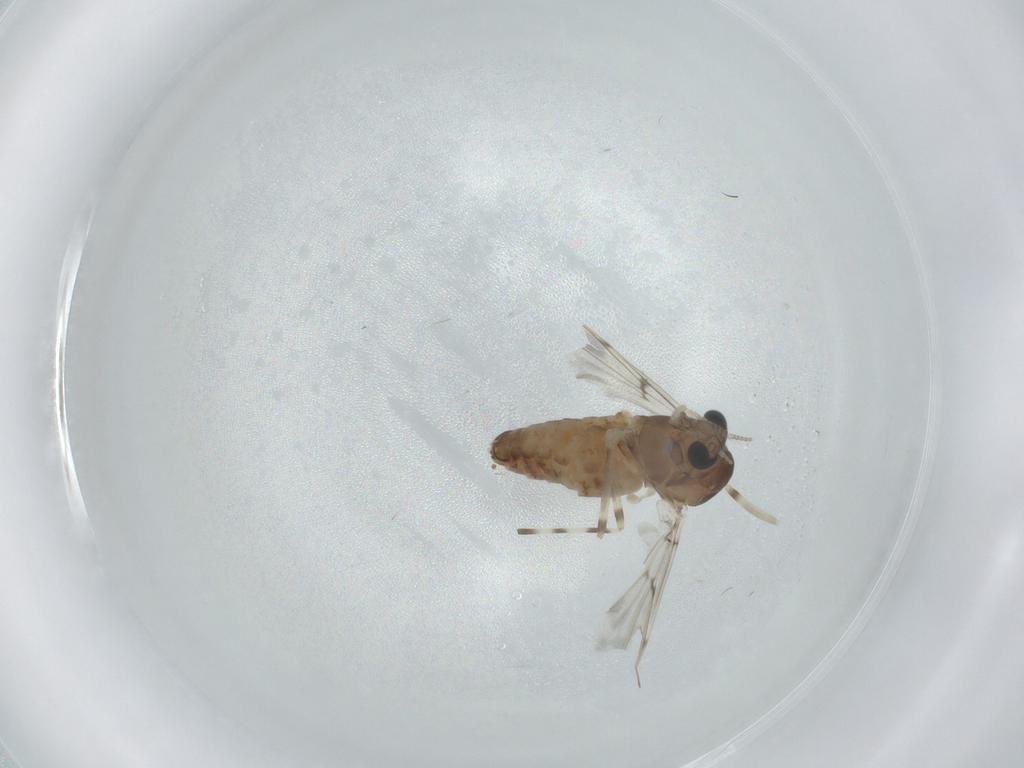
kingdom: Animalia
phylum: Arthropoda
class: Insecta
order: Diptera
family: Chironomidae
